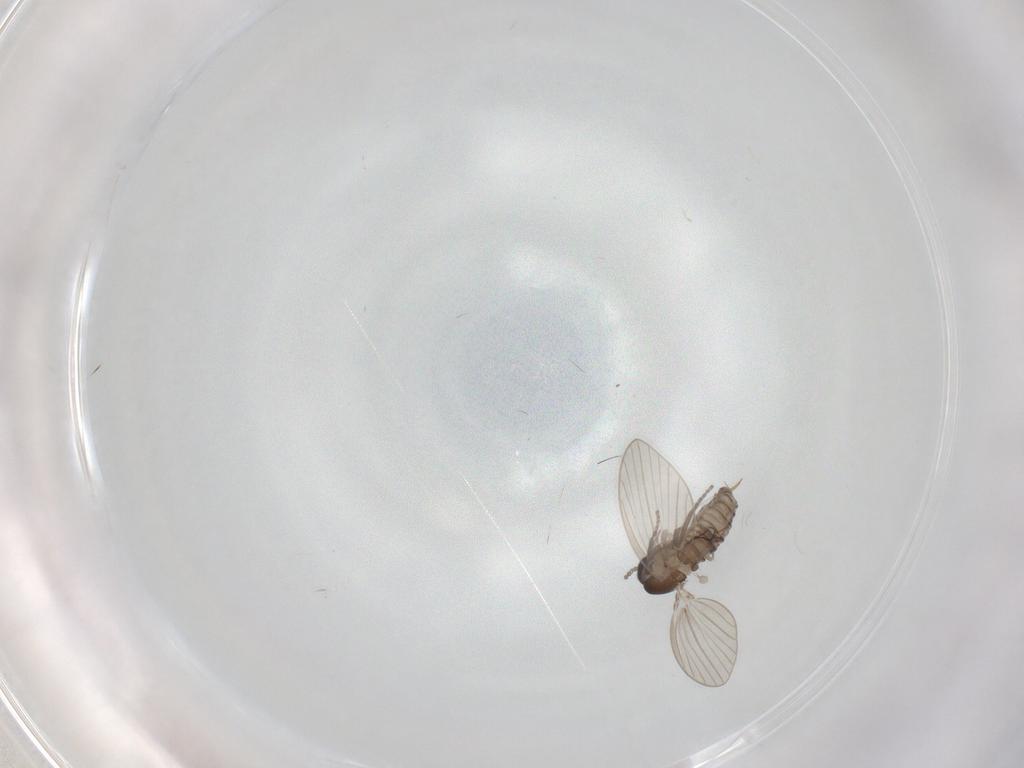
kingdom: Animalia
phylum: Arthropoda
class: Insecta
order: Diptera
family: Psychodidae
